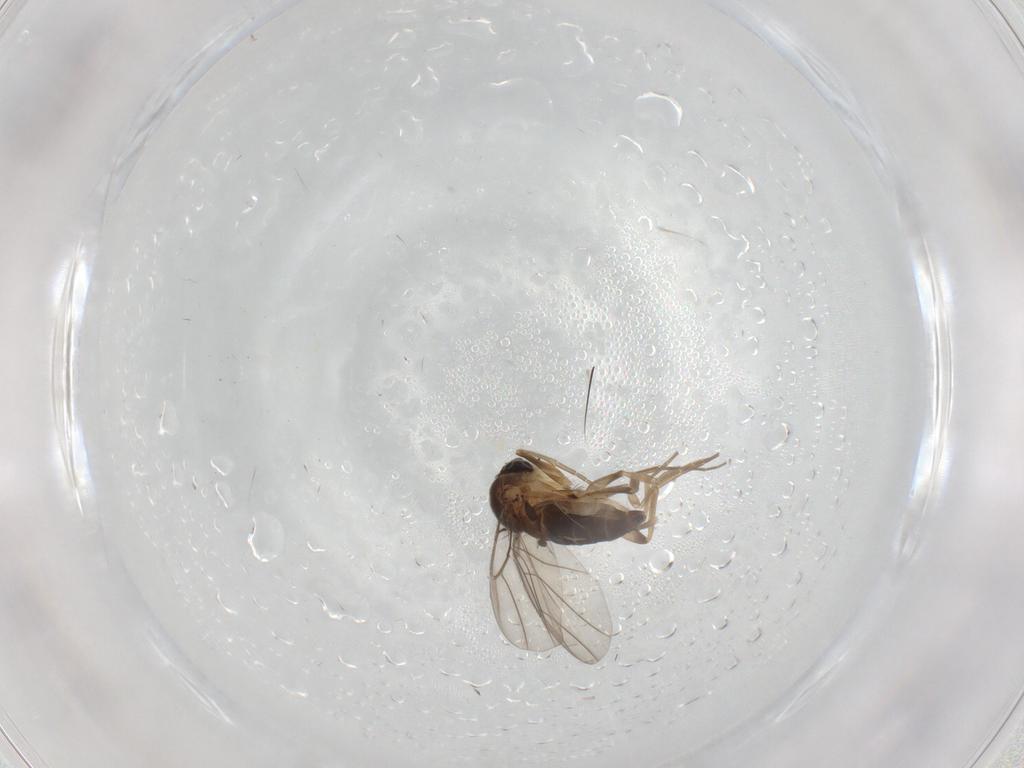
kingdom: Animalia
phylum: Arthropoda
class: Insecta
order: Diptera
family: Phoridae
